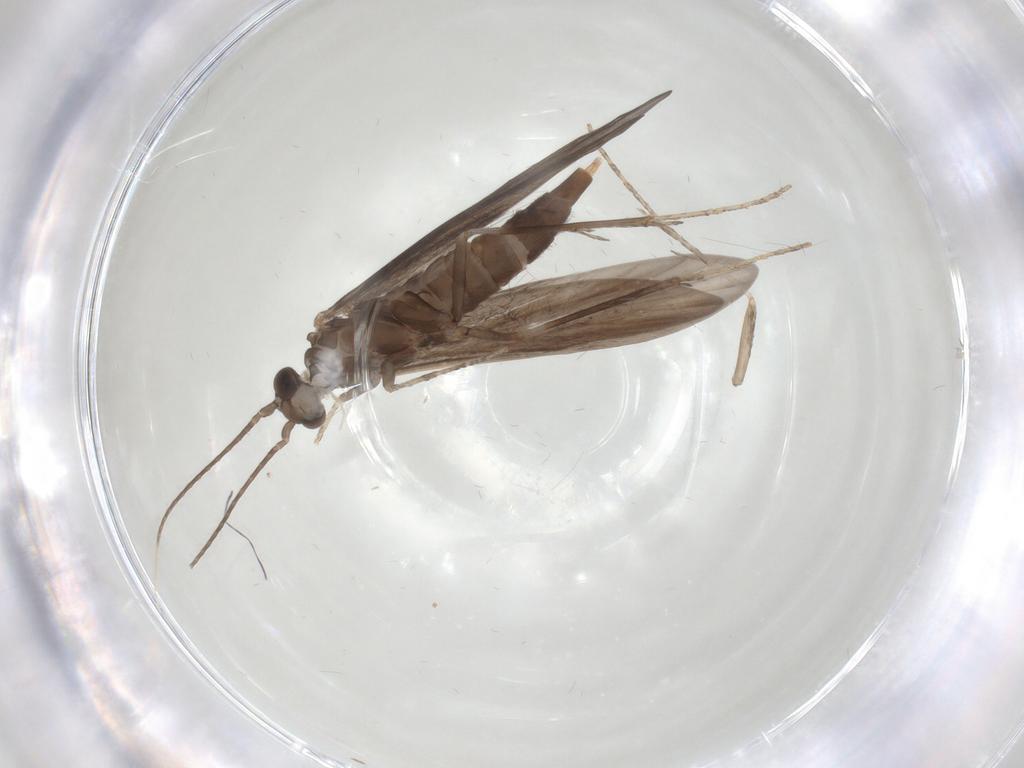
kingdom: Animalia
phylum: Arthropoda
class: Insecta
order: Trichoptera
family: Xiphocentronidae
